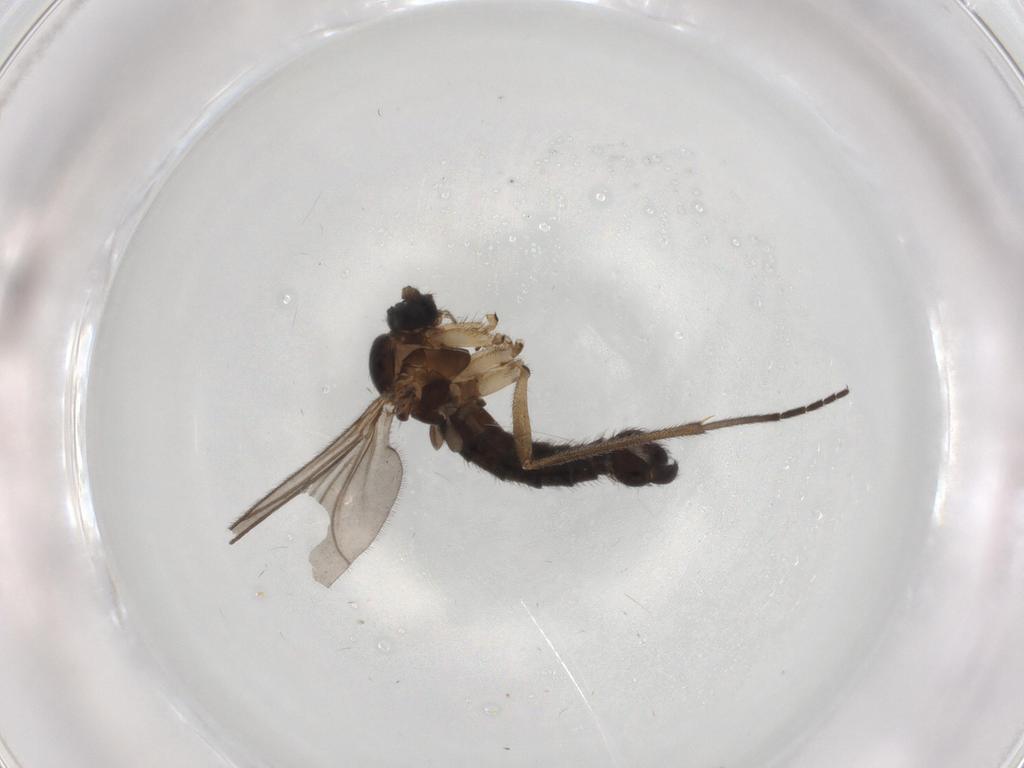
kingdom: Animalia
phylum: Arthropoda
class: Insecta
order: Diptera
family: Sciaridae
